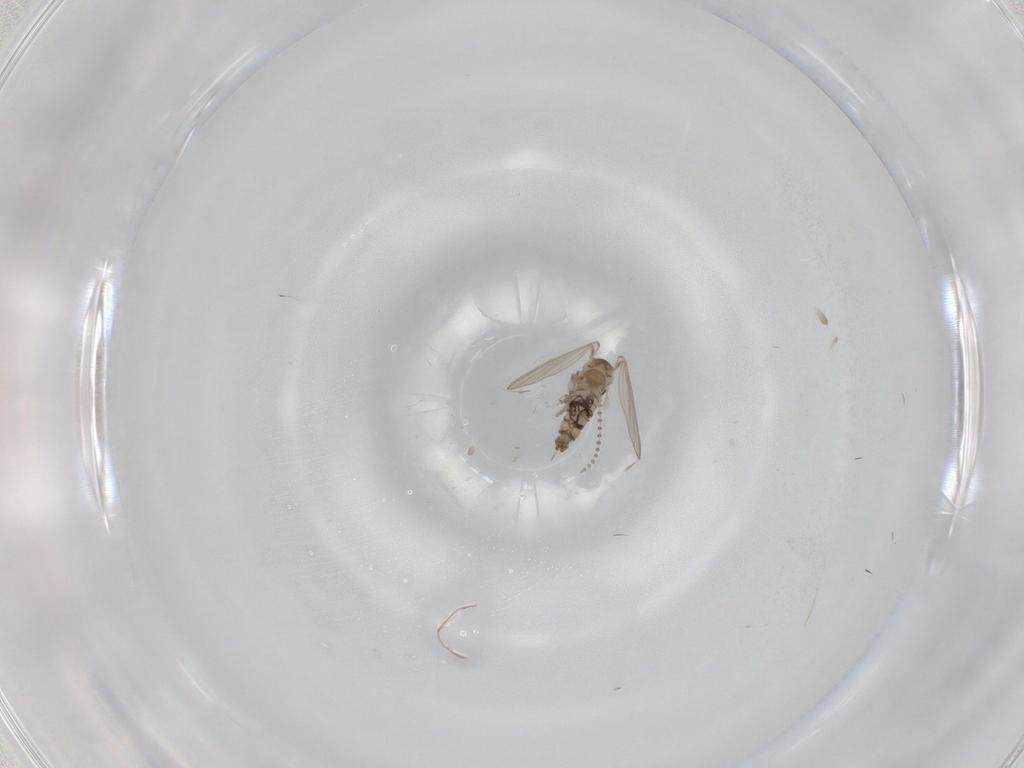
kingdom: Animalia
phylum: Arthropoda
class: Insecta
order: Diptera
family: Psychodidae
